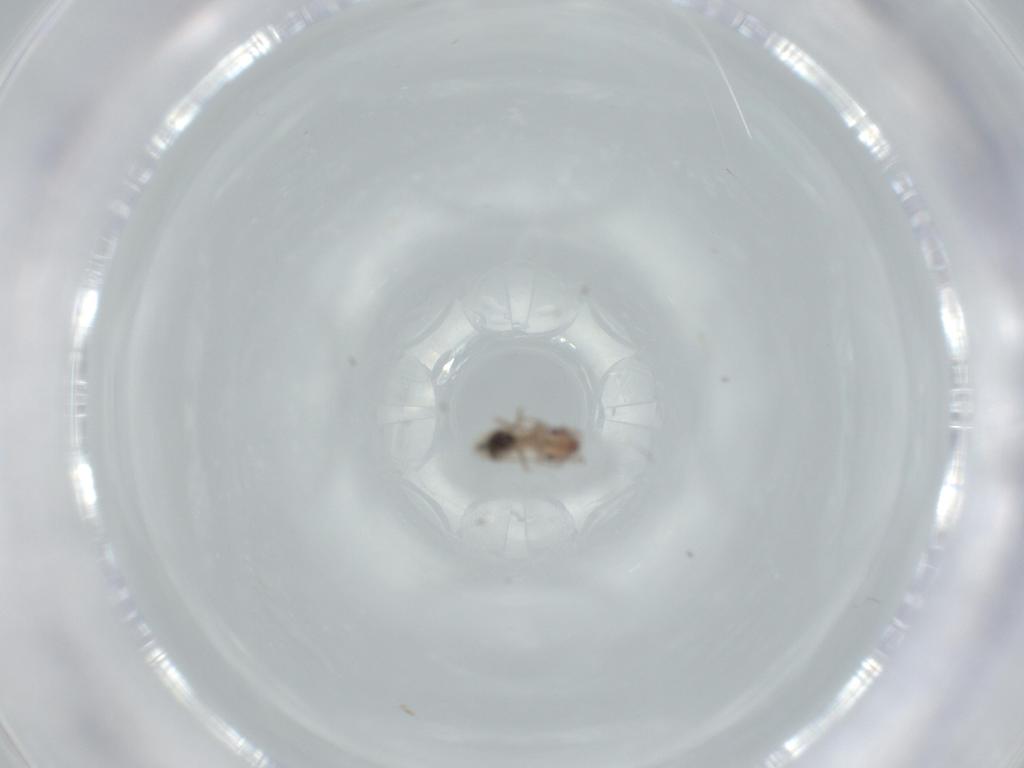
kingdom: Animalia
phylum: Arthropoda
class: Insecta
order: Psocodea
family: Lepidopsocidae
